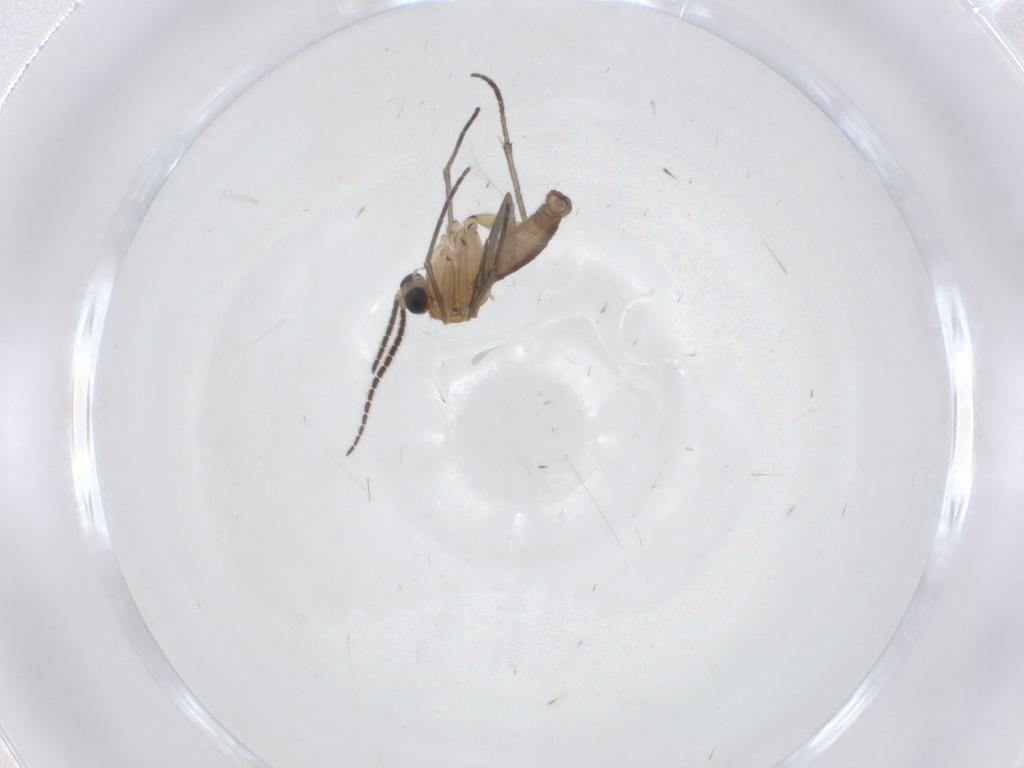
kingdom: Animalia
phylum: Arthropoda
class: Insecta
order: Diptera
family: Sciaridae
